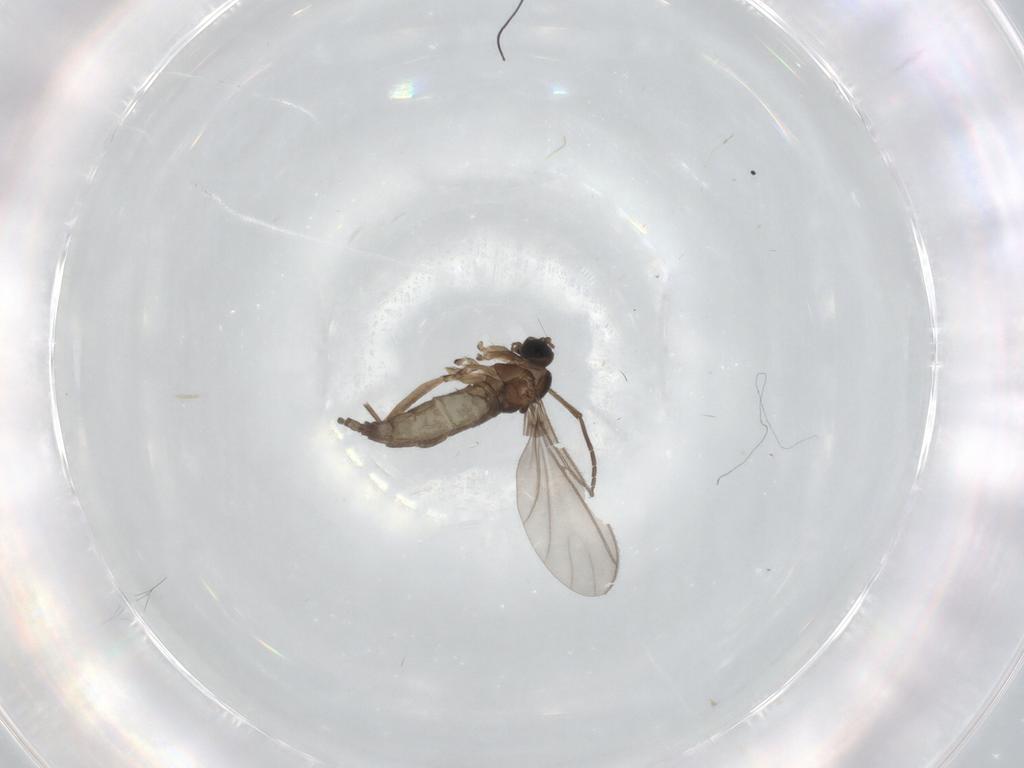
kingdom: Animalia
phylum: Arthropoda
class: Insecta
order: Diptera
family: Sciaridae
